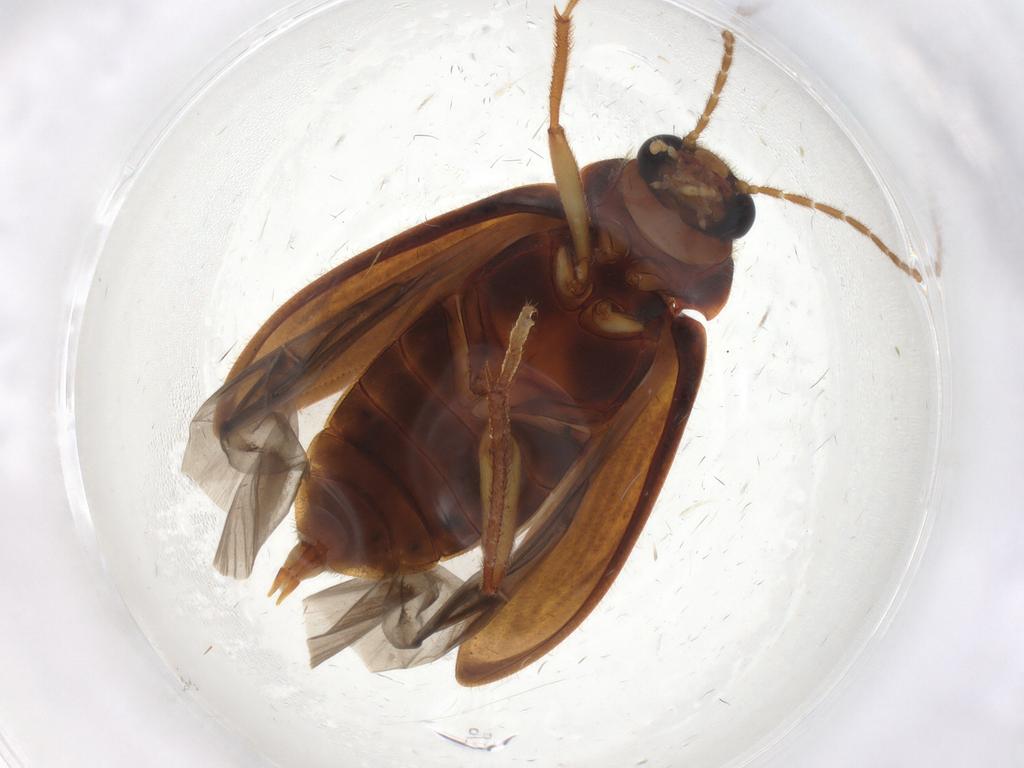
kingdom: Animalia
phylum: Arthropoda
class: Insecta
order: Coleoptera
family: Ptilodactylidae
